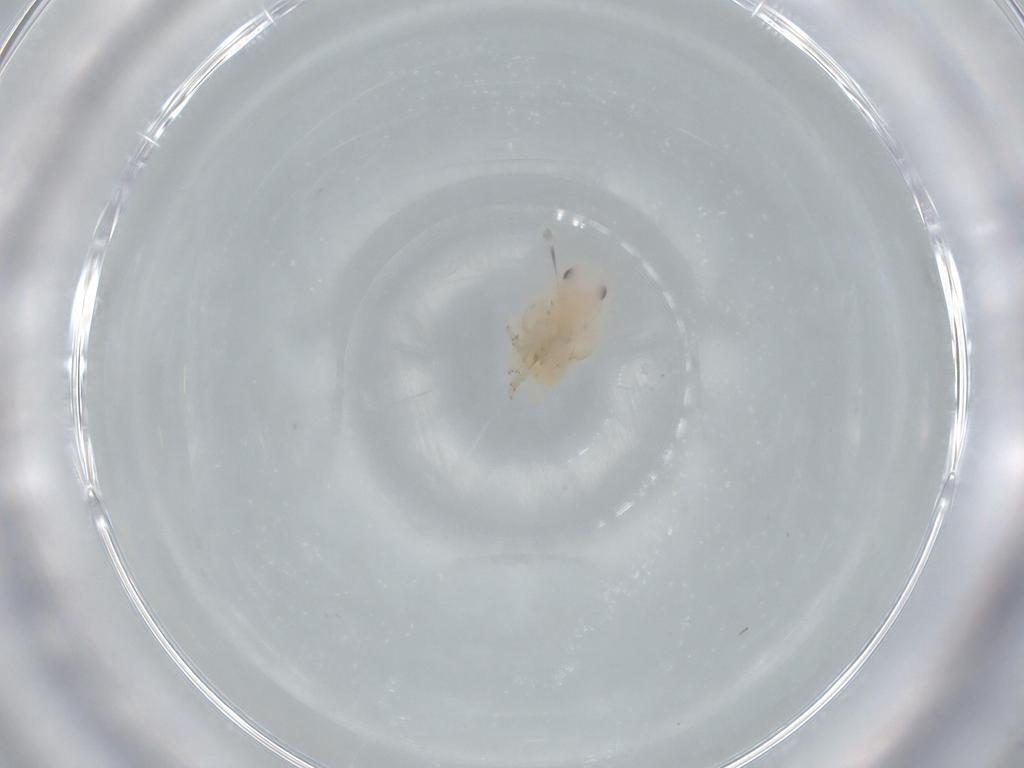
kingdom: Animalia
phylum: Arthropoda
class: Insecta
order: Hemiptera
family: Flatidae
